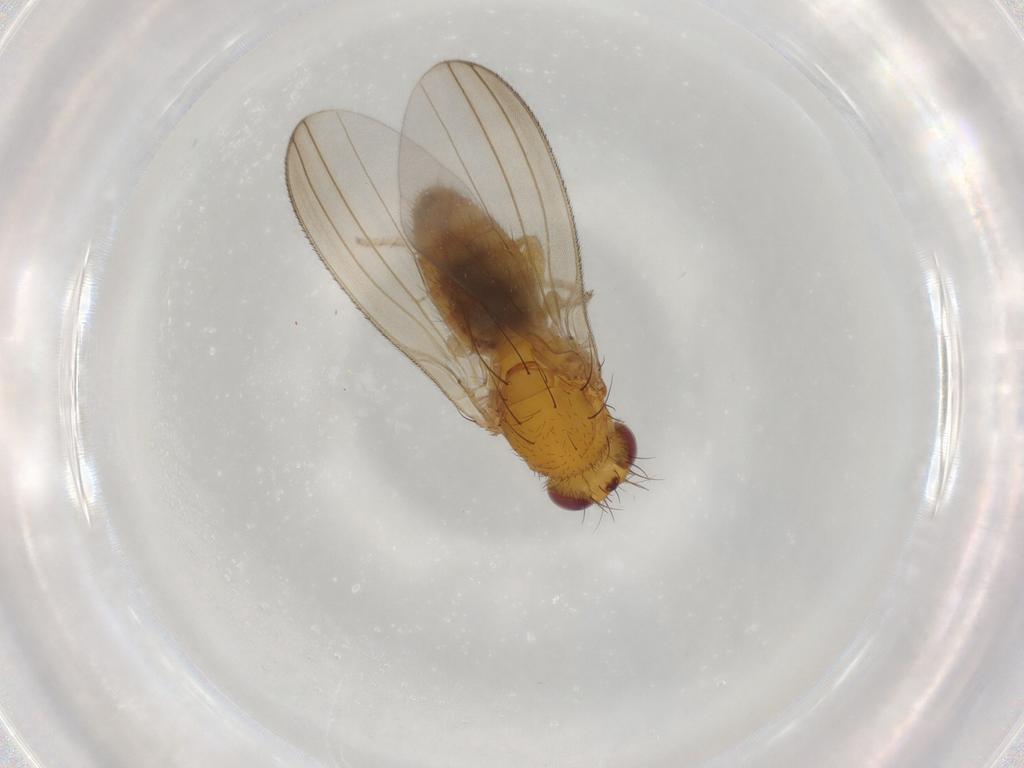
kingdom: Animalia
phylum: Arthropoda
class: Insecta
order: Diptera
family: Natalimyzidae
